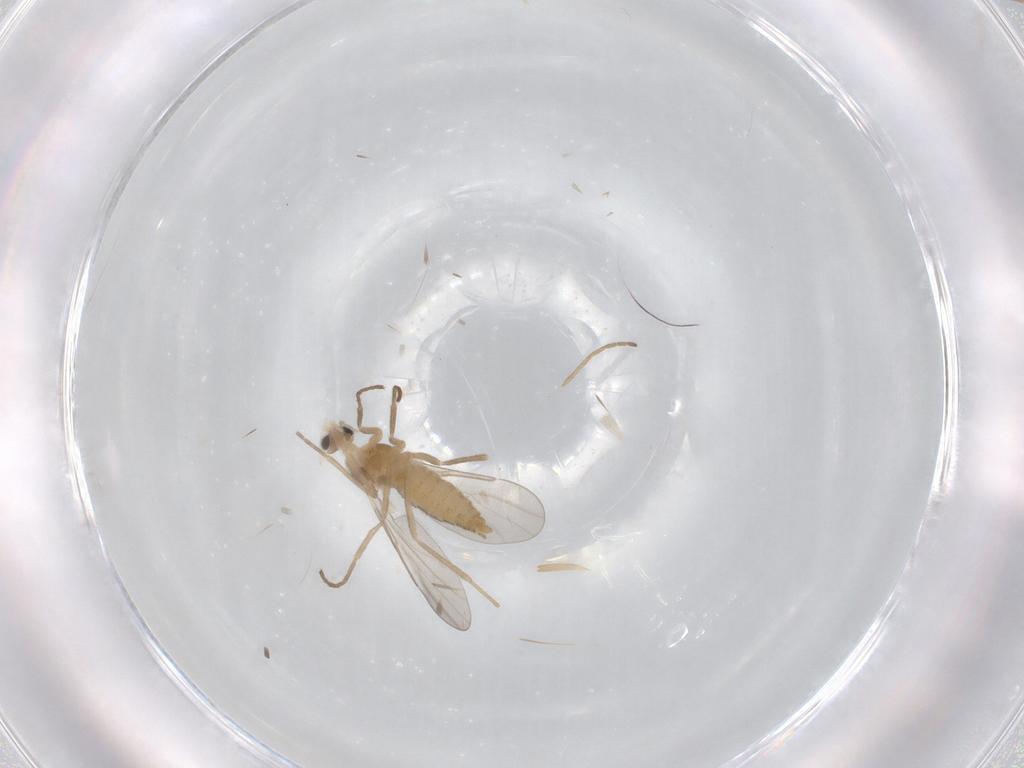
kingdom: Animalia
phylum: Arthropoda
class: Insecta
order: Diptera
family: Cecidomyiidae
